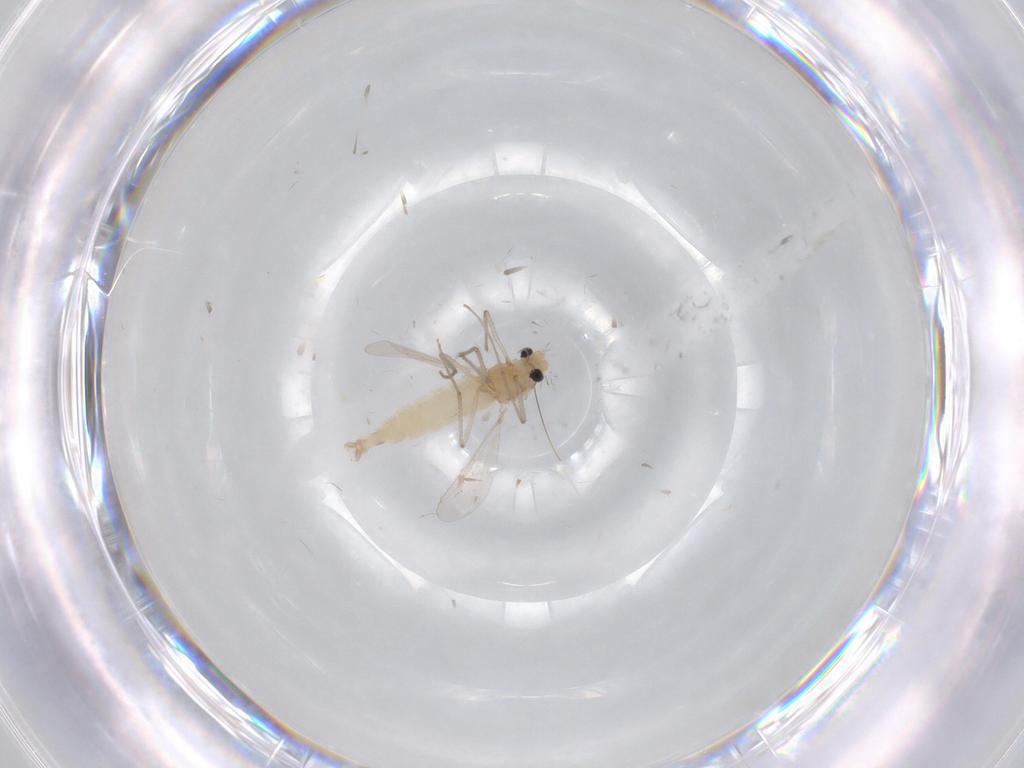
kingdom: Animalia
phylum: Arthropoda
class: Insecta
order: Diptera
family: Chironomidae
